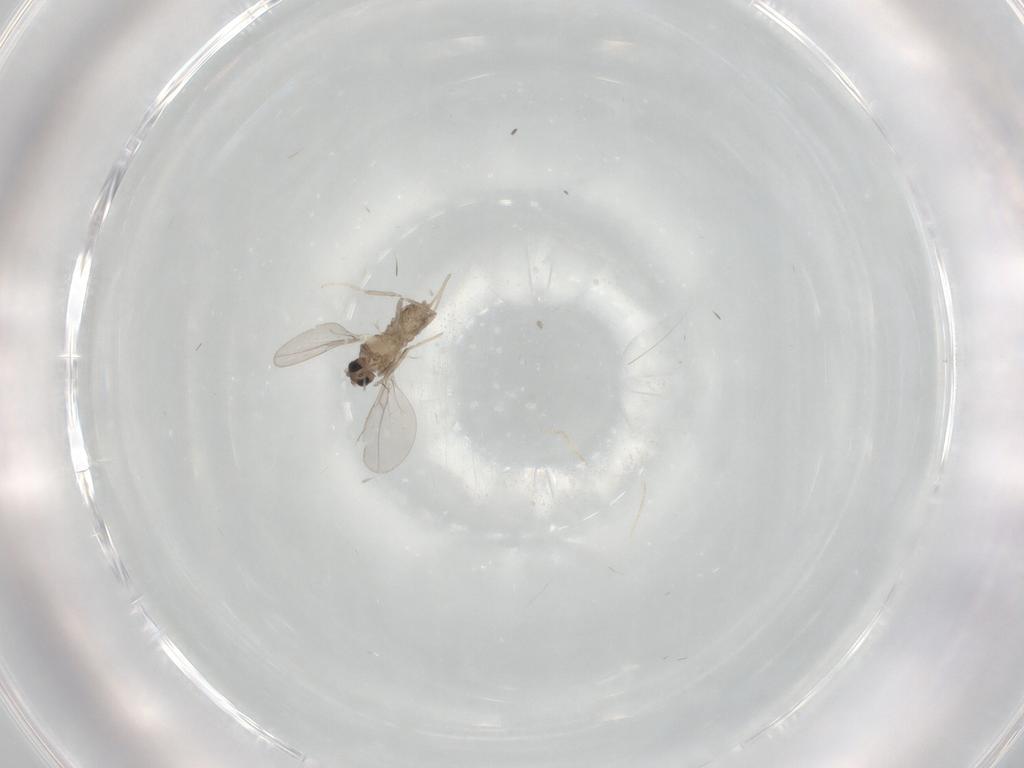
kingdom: Animalia
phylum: Arthropoda
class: Insecta
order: Diptera
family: Cecidomyiidae
